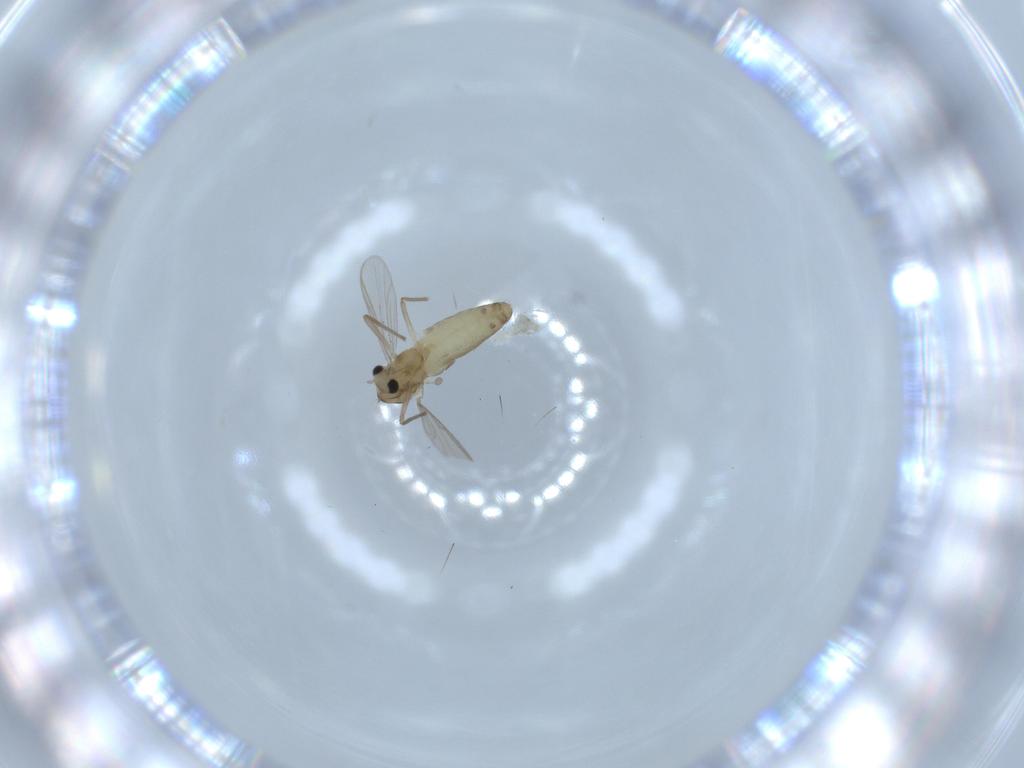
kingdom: Animalia
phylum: Arthropoda
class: Insecta
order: Diptera
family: Chironomidae
